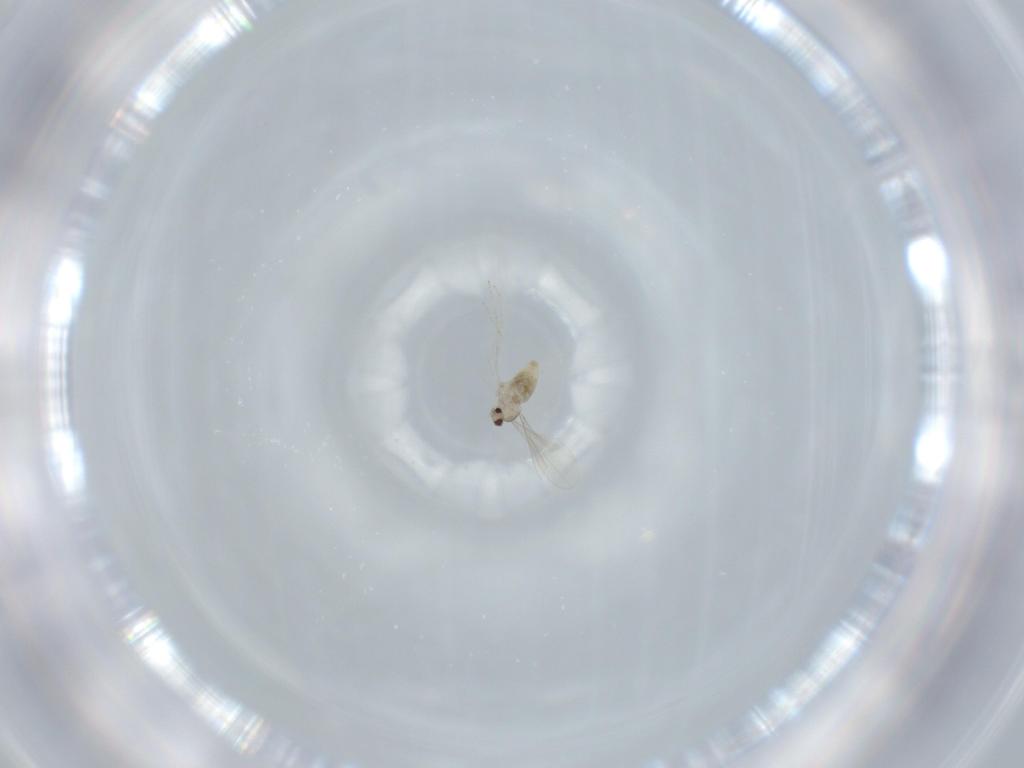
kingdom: Animalia
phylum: Arthropoda
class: Insecta
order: Diptera
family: Cecidomyiidae
